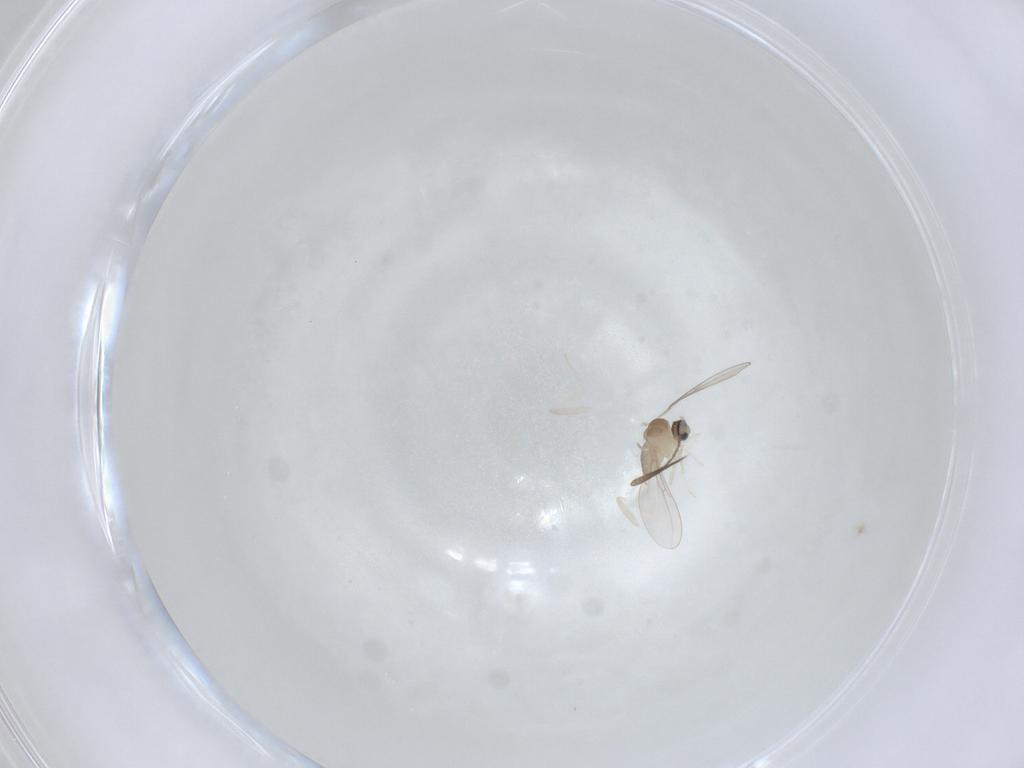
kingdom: Animalia
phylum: Arthropoda
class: Insecta
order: Diptera
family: Ceratopogonidae
